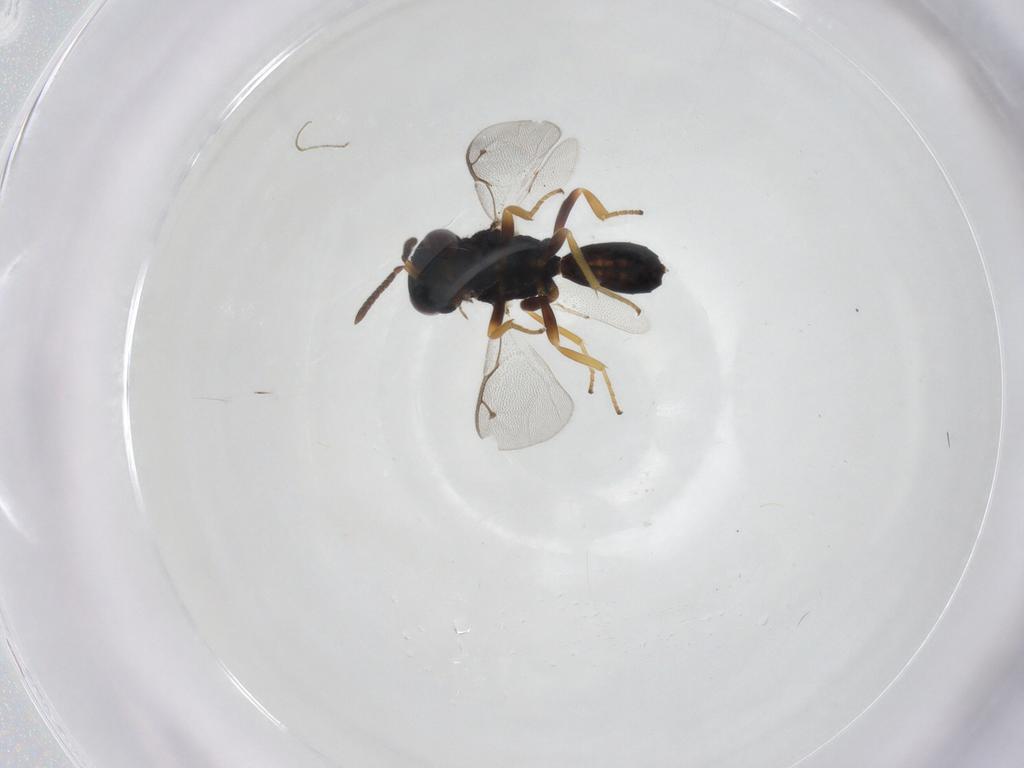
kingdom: Animalia
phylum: Arthropoda
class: Insecta
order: Hymenoptera
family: Pteromalidae
